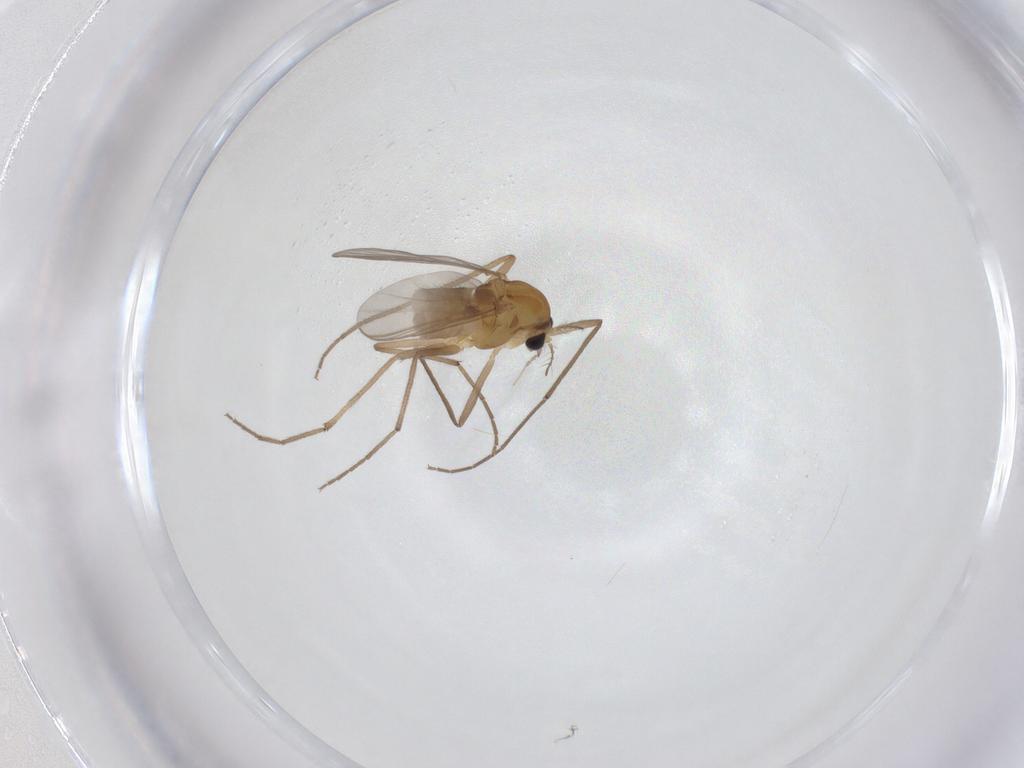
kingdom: Animalia
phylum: Arthropoda
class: Insecta
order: Diptera
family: Chironomidae
